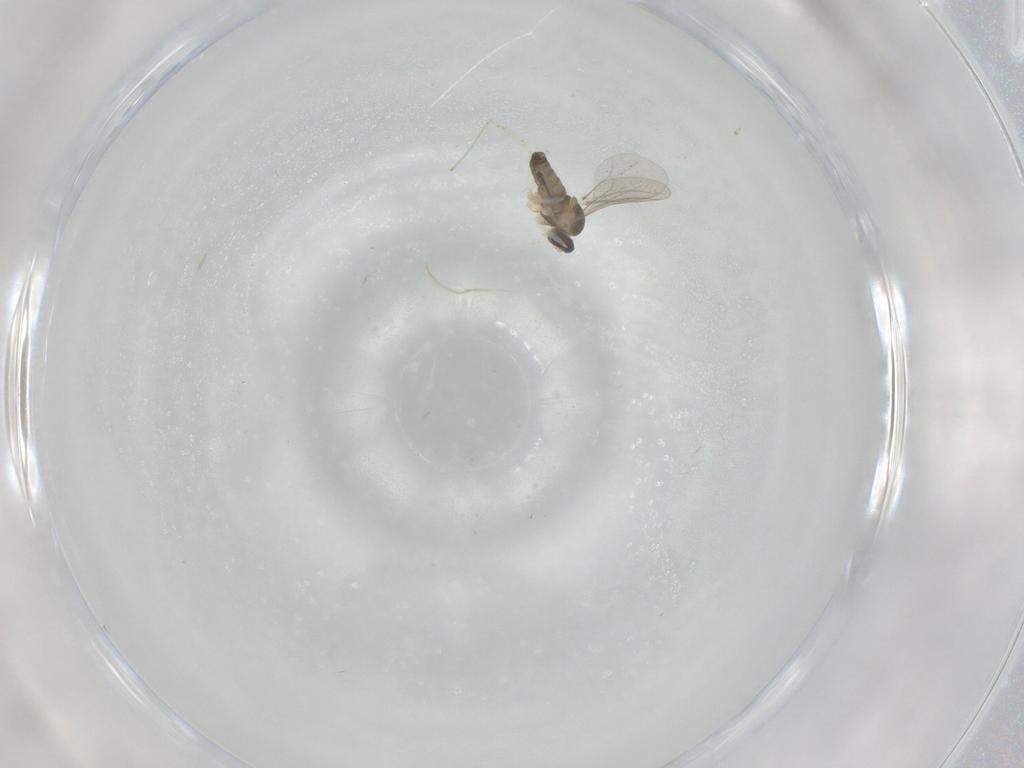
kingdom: Animalia
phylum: Arthropoda
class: Insecta
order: Diptera
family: Cecidomyiidae
